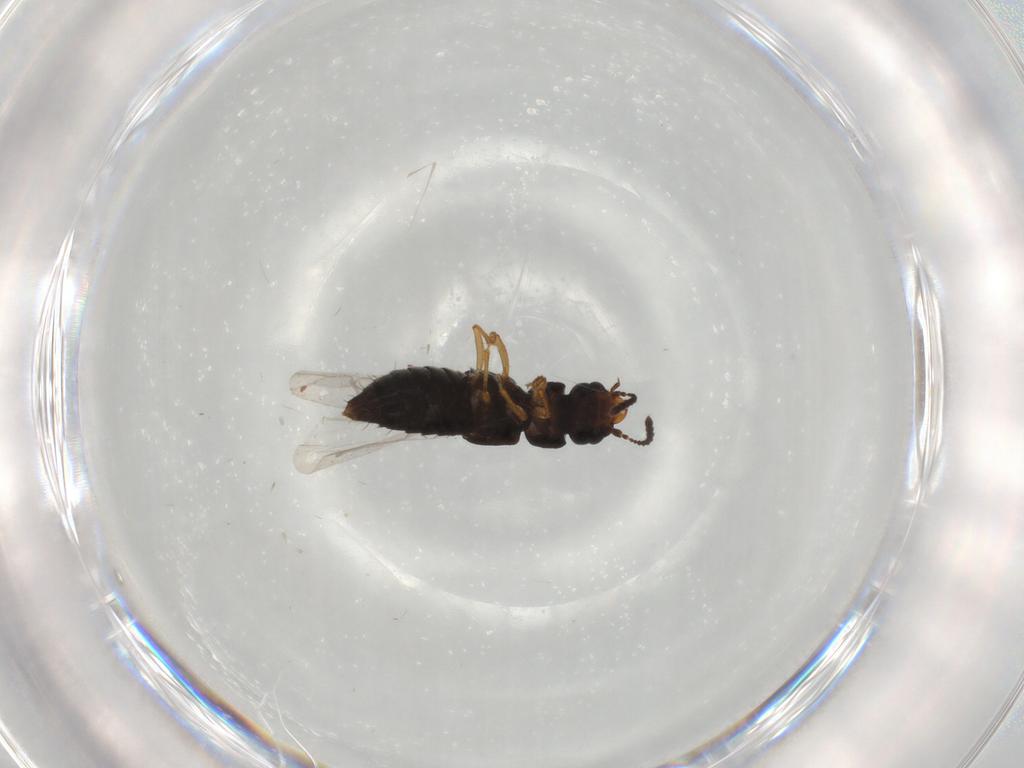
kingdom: Animalia
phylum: Arthropoda
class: Insecta
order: Coleoptera
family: Staphylinidae
